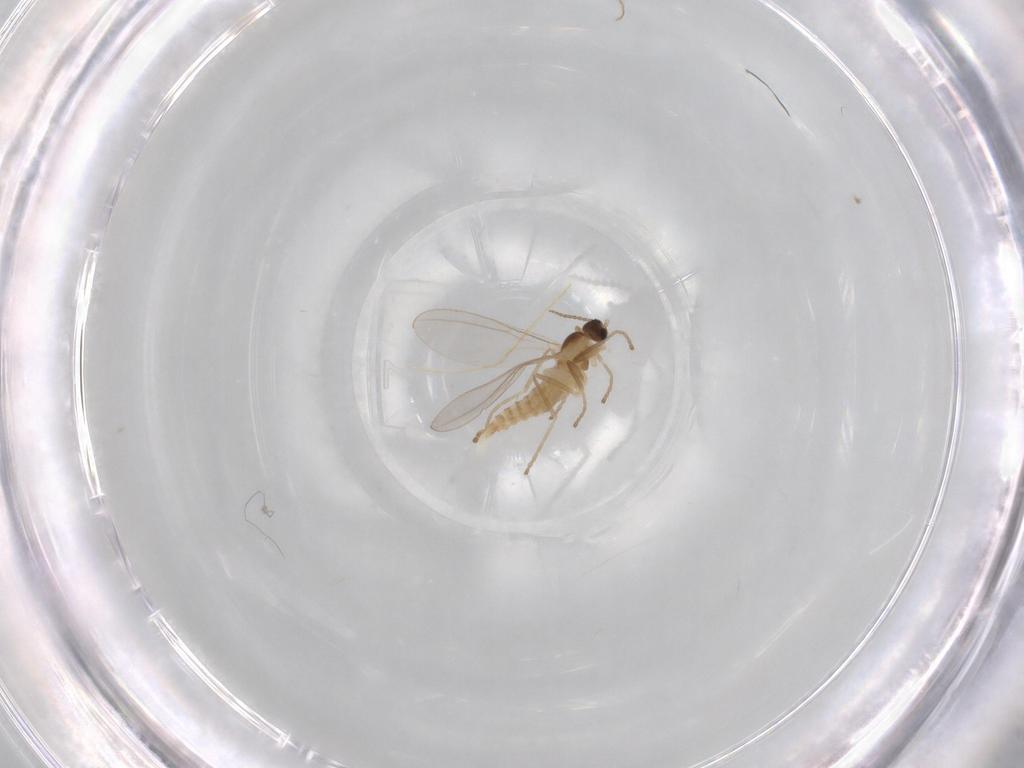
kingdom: Animalia
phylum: Arthropoda
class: Insecta
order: Diptera
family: Cecidomyiidae
